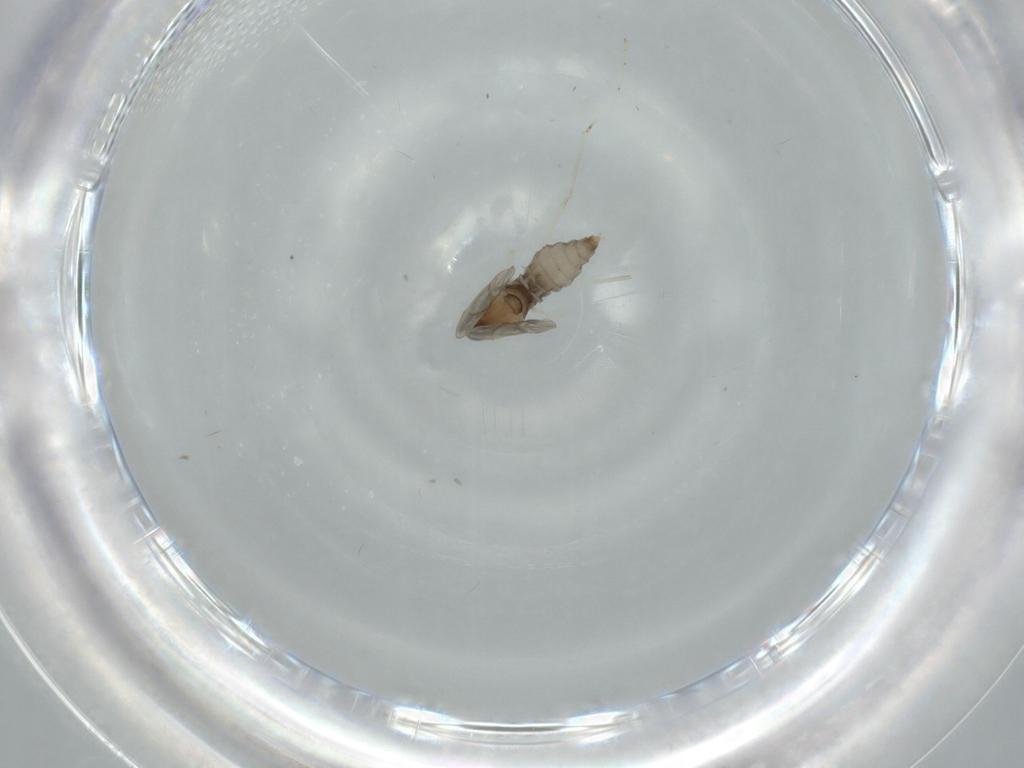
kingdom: Animalia
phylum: Arthropoda
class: Insecta
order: Diptera
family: Cecidomyiidae
